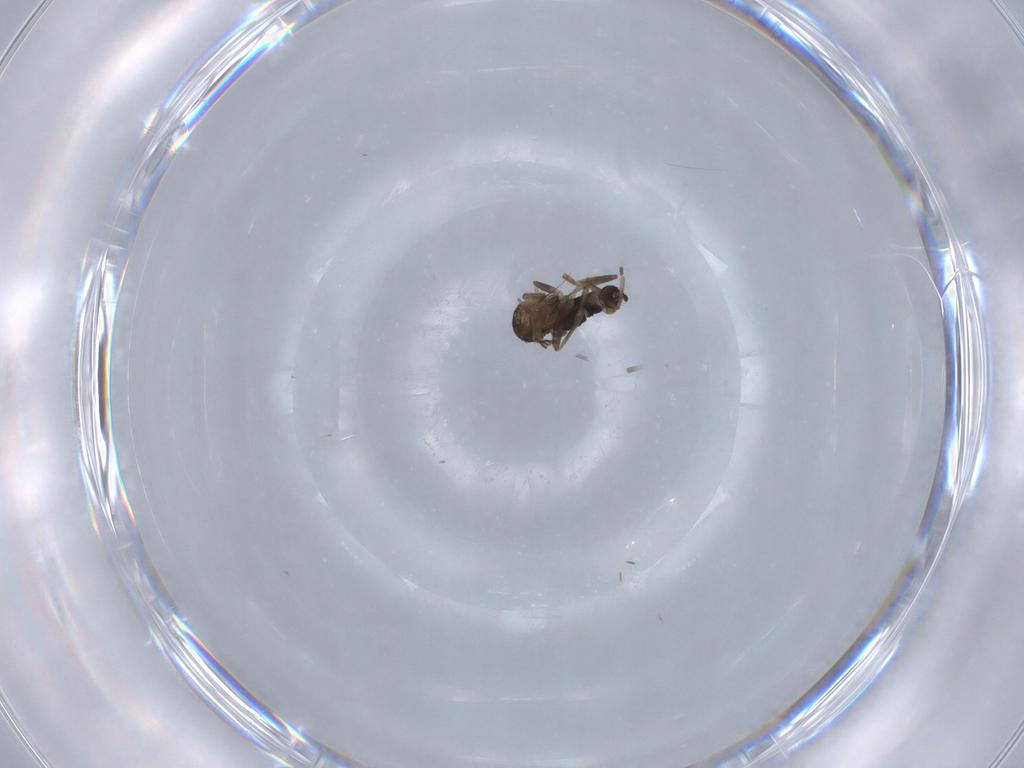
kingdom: Animalia
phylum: Arthropoda
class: Insecta
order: Diptera
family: Phoridae
